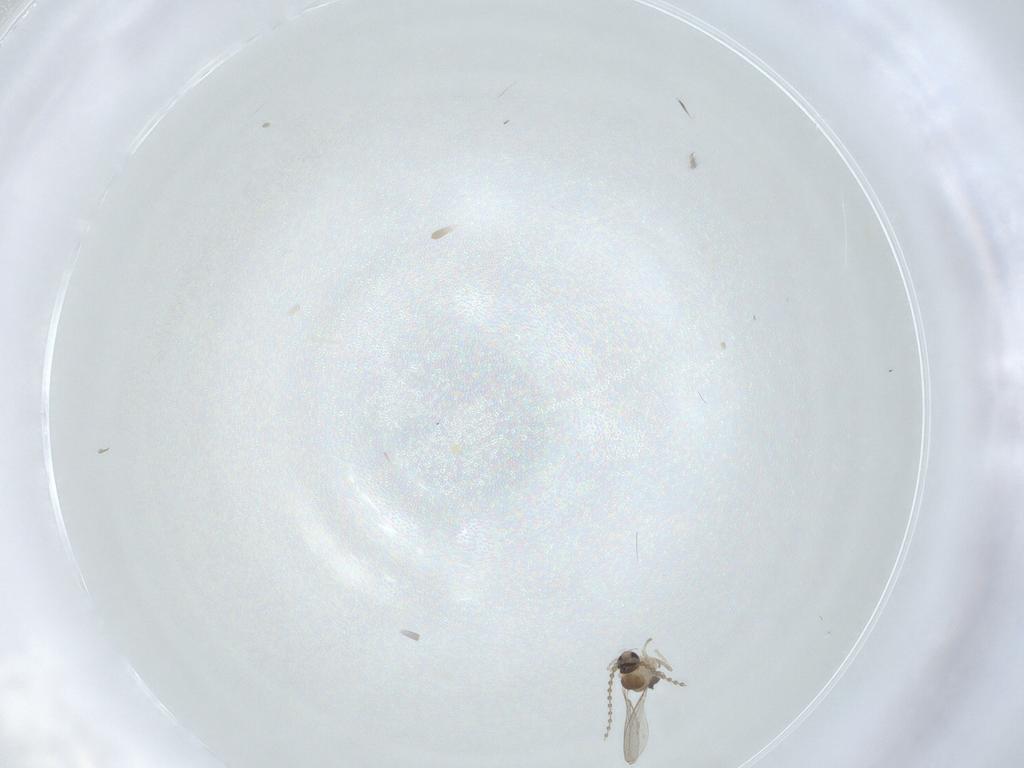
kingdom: Animalia
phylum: Arthropoda
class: Insecta
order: Diptera
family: Cecidomyiidae
